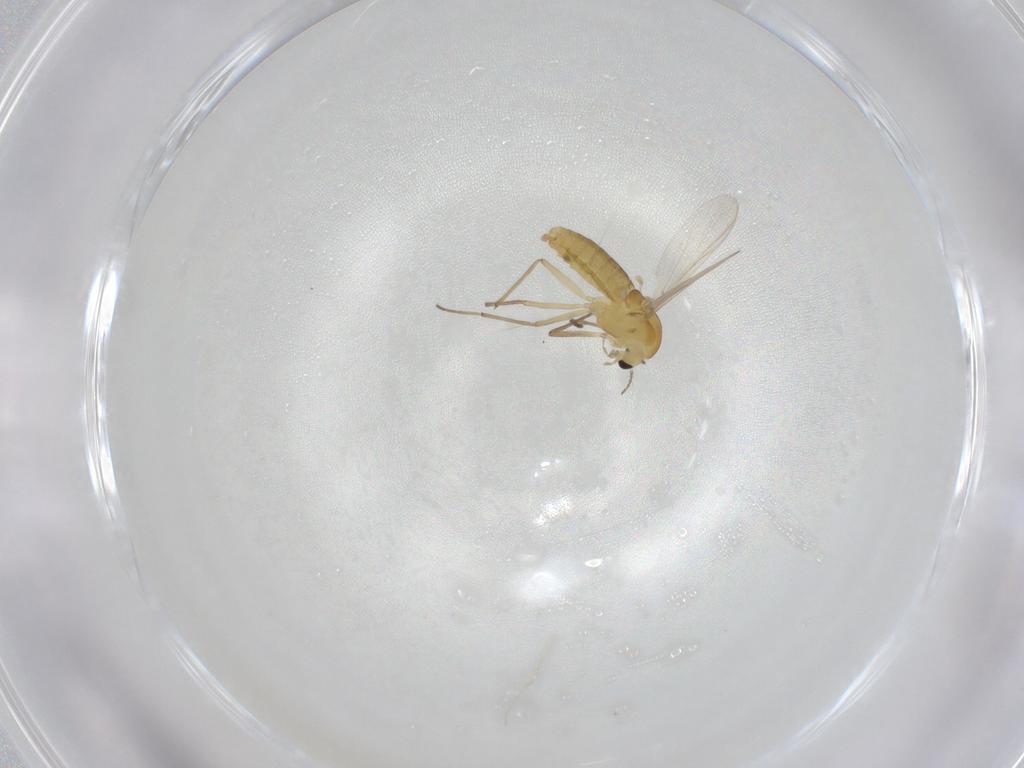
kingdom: Animalia
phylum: Arthropoda
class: Insecta
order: Diptera
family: Chironomidae
